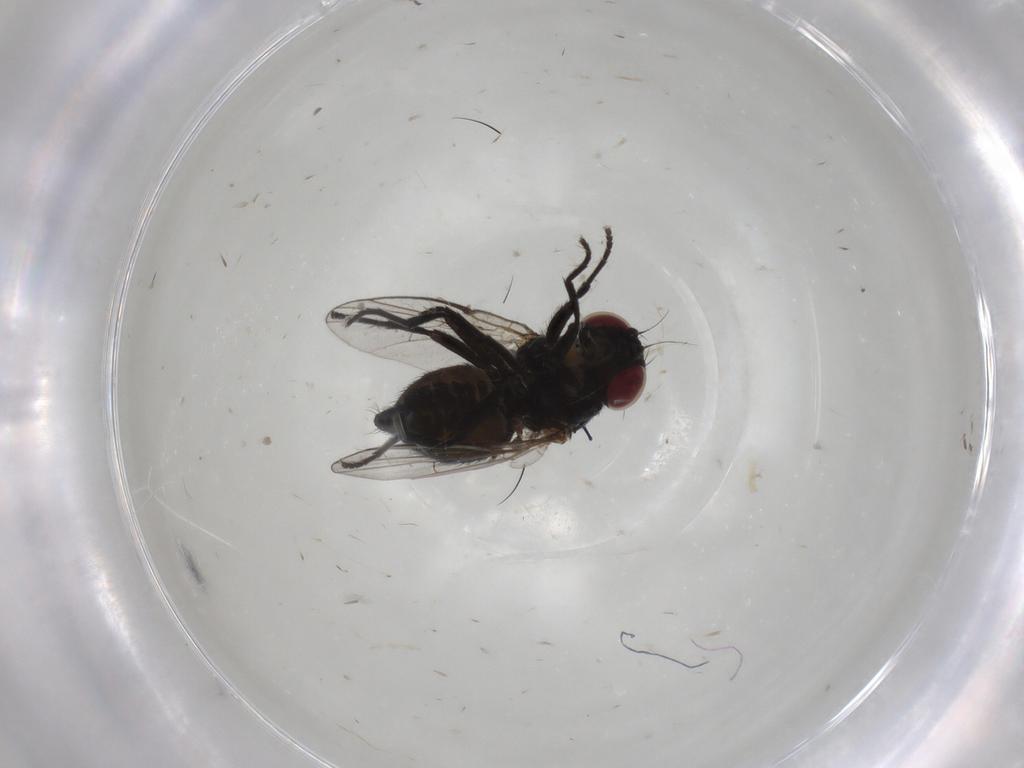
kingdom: Animalia
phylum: Arthropoda
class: Insecta
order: Diptera
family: Agromyzidae
